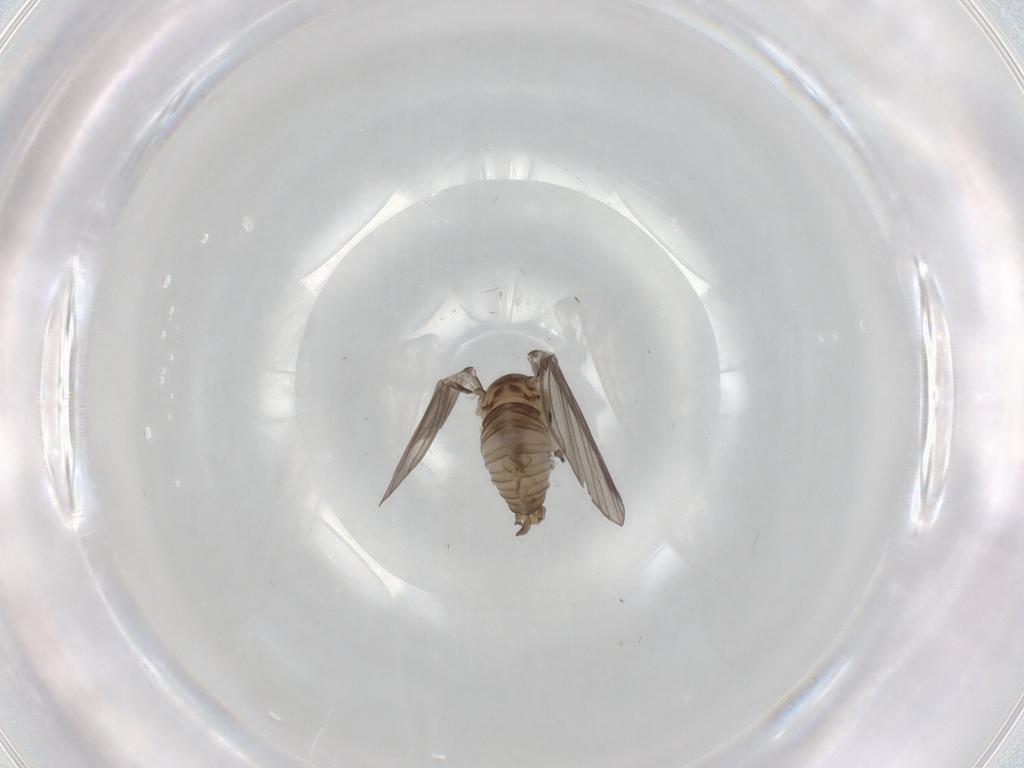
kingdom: Animalia
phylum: Arthropoda
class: Insecta
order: Diptera
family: Psychodidae
